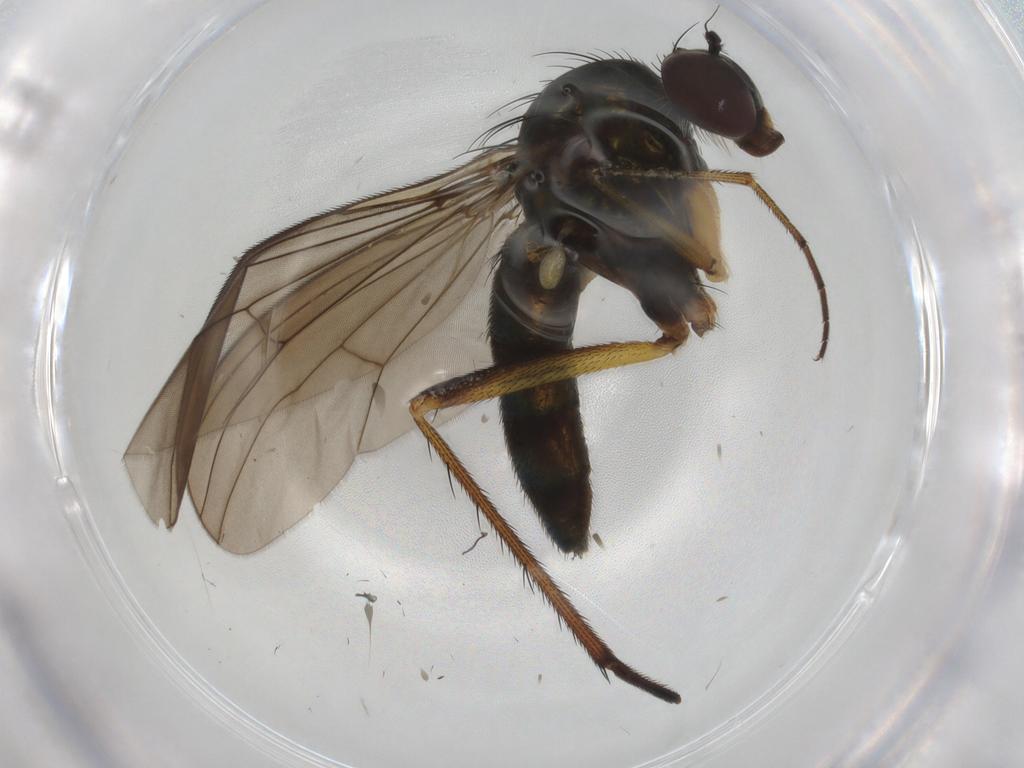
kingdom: Animalia
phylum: Arthropoda
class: Insecta
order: Diptera
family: Dolichopodidae
